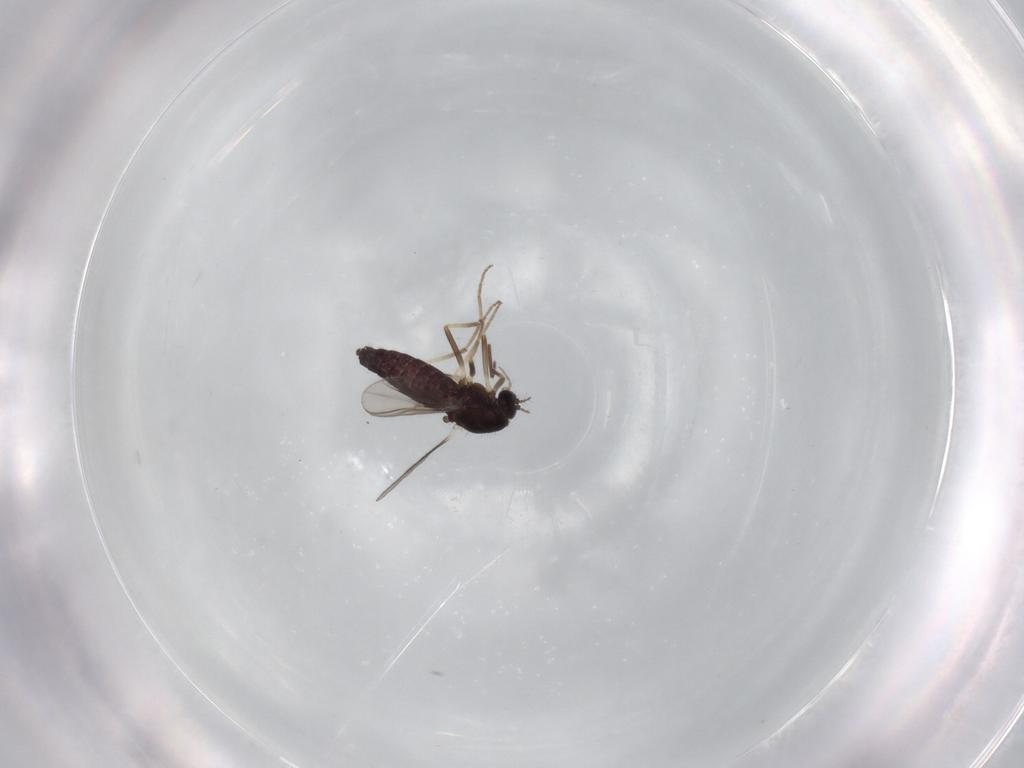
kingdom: Animalia
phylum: Arthropoda
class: Insecta
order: Diptera
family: Chironomidae
